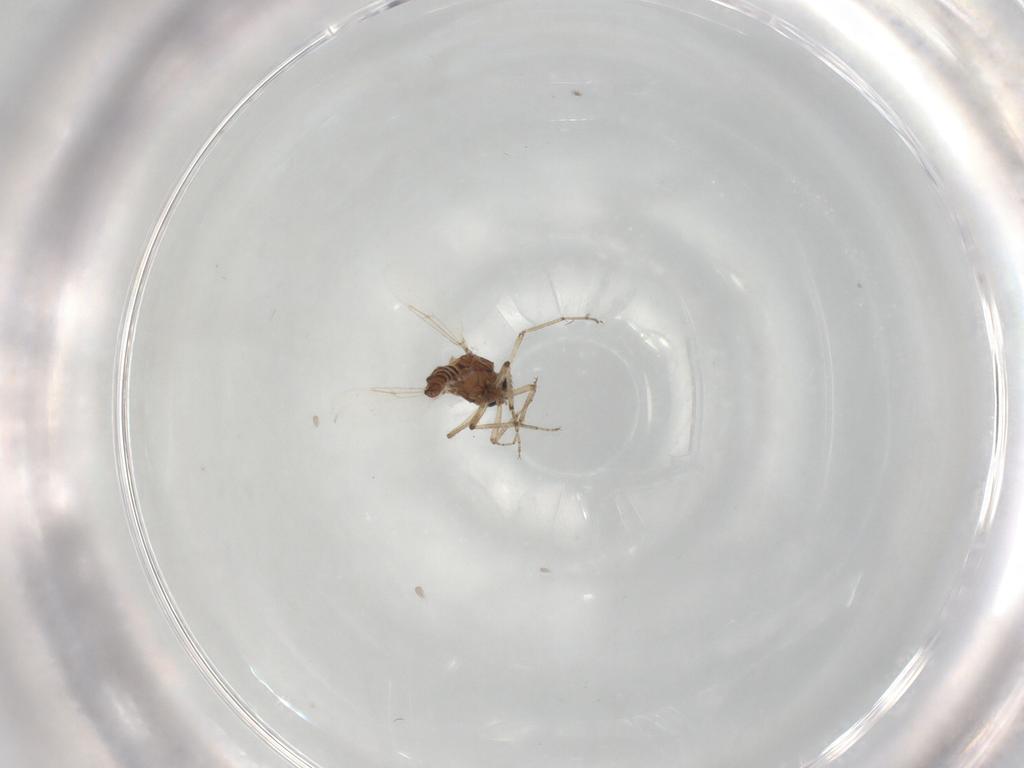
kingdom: Animalia
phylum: Arthropoda
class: Insecta
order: Diptera
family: Ceratopogonidae
